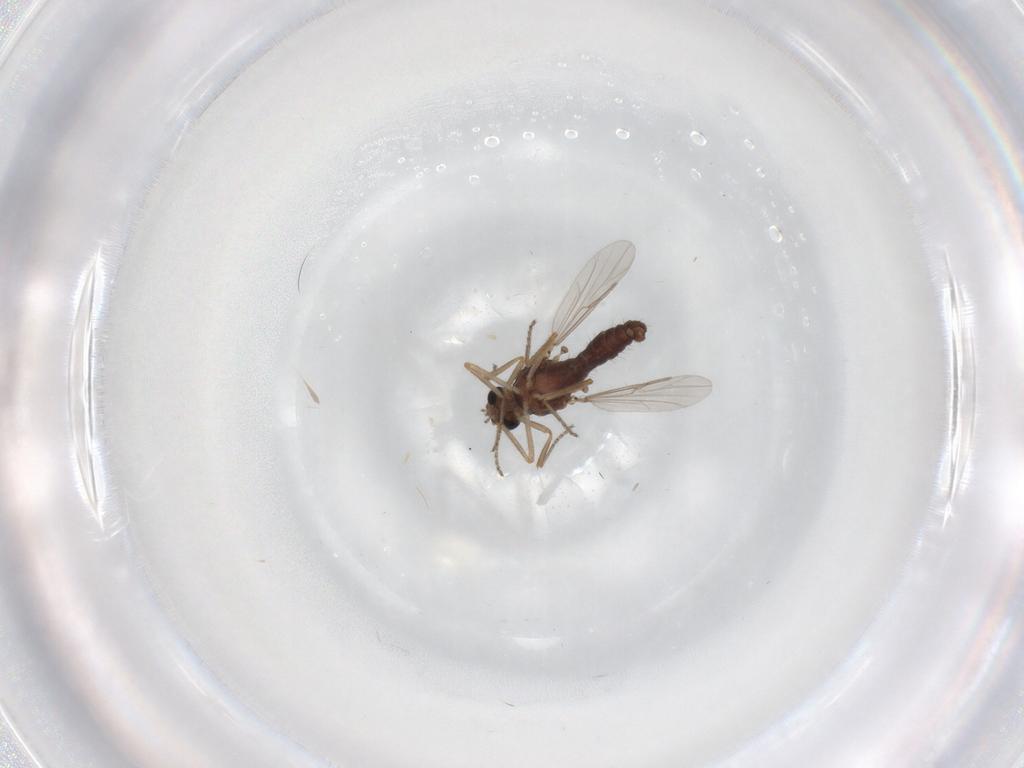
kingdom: Animalia
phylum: Arthropoda
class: Insecta
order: Diptera
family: Ceratopogonidae
